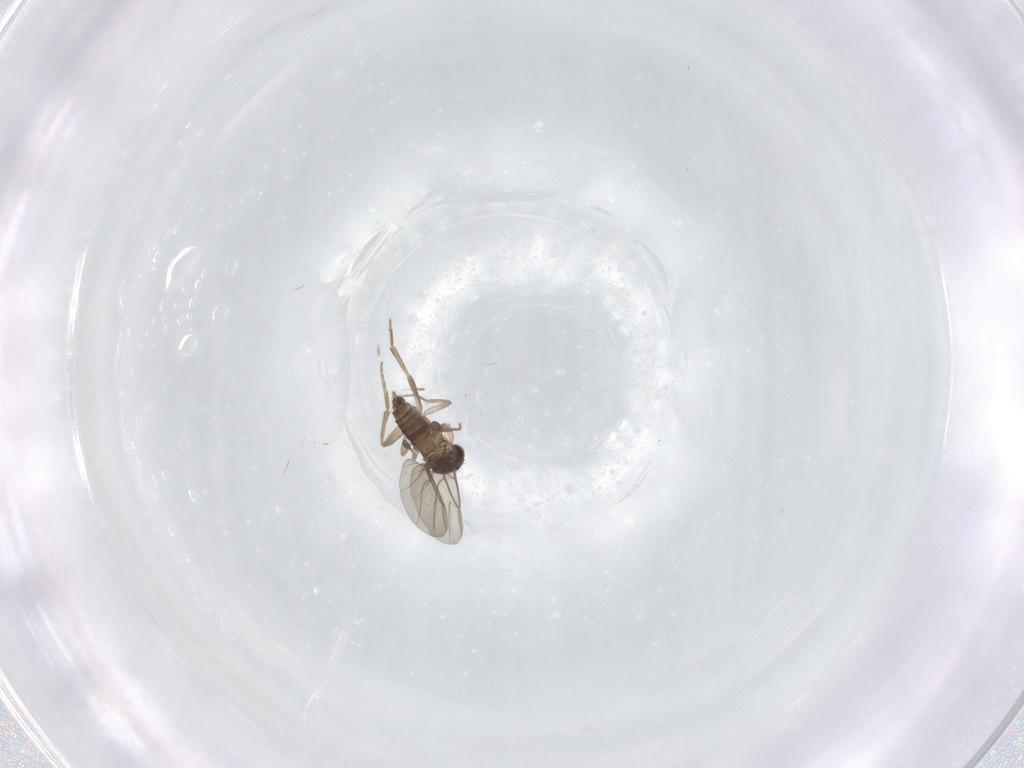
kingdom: Animalia
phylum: Arthropoda
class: Insecta
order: Diptera
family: Phoridae
